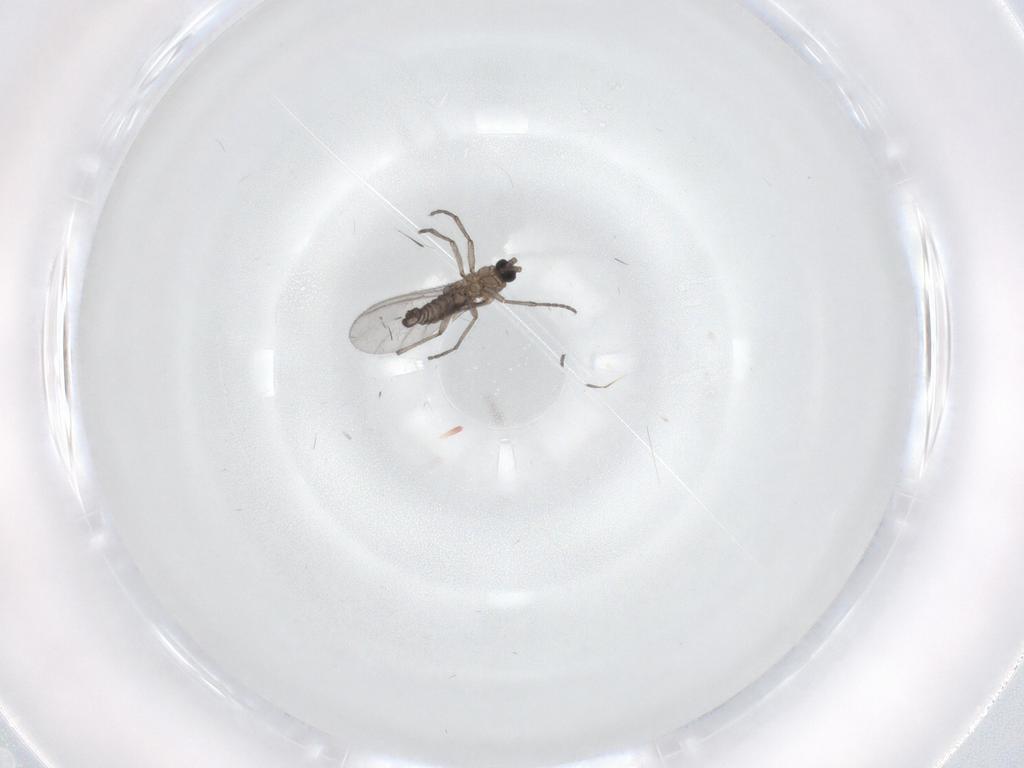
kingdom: Animalia
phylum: Arthropoda
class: Insecta
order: Diptera
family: Sciaridae
